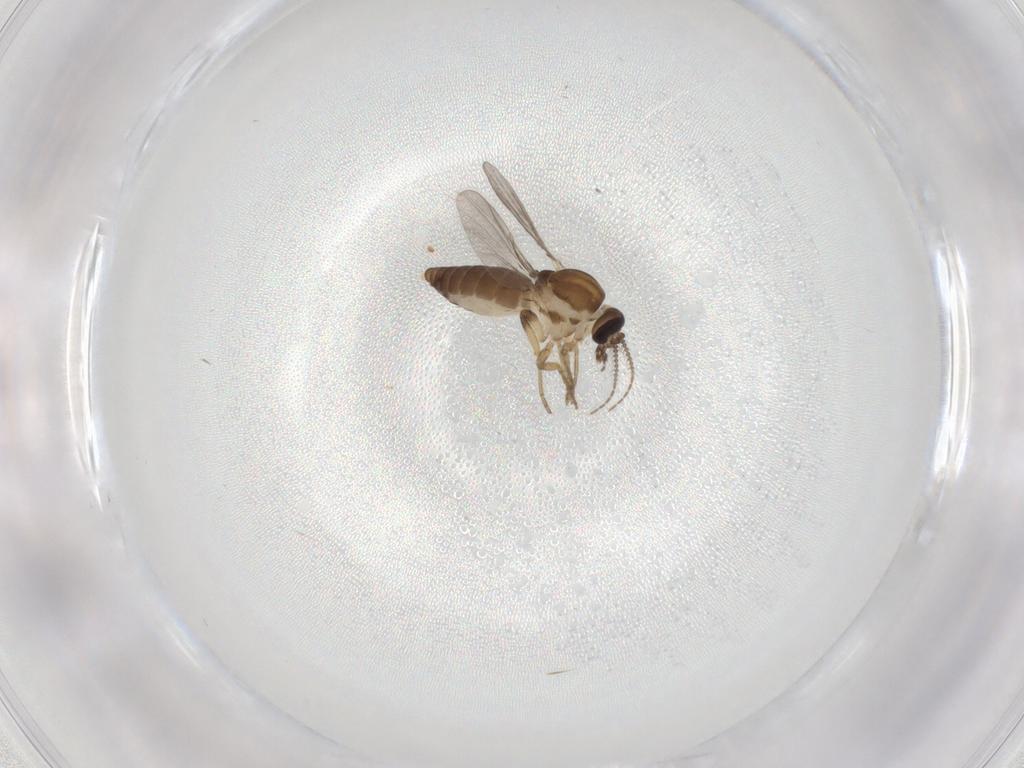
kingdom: Animalia
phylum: Arthropoda
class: Insecta
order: Diptera
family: Ceratopogonidae
